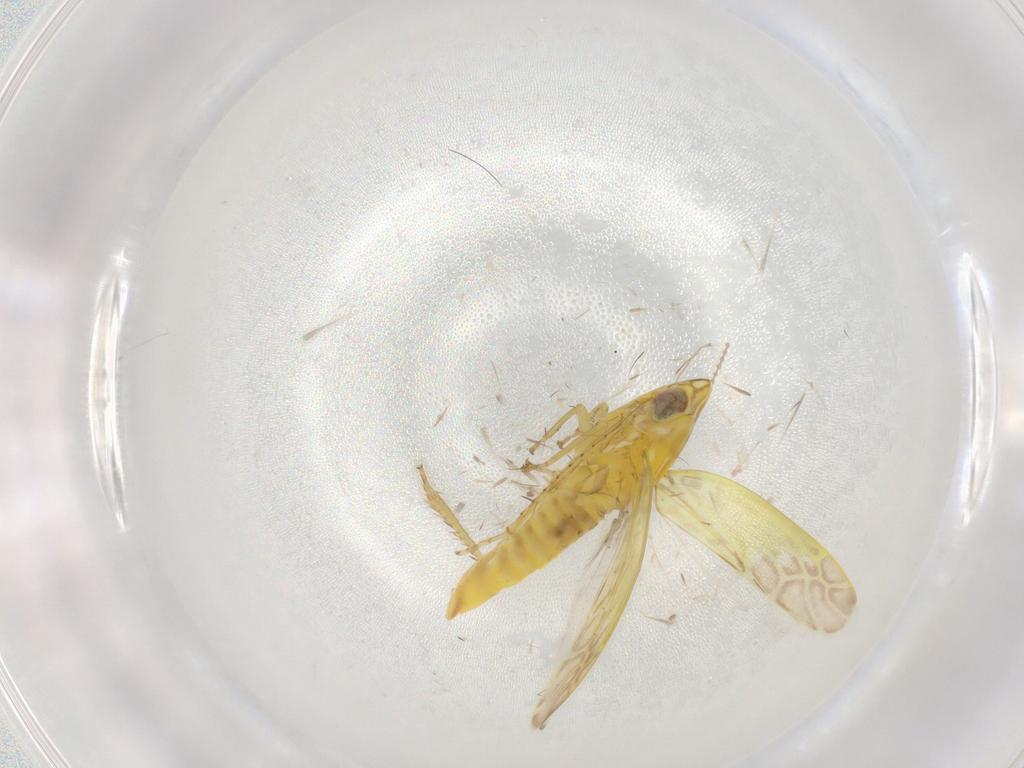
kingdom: Animalia
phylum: Arthropoda
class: Insecta
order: Hemiptera
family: Cicadellidae
